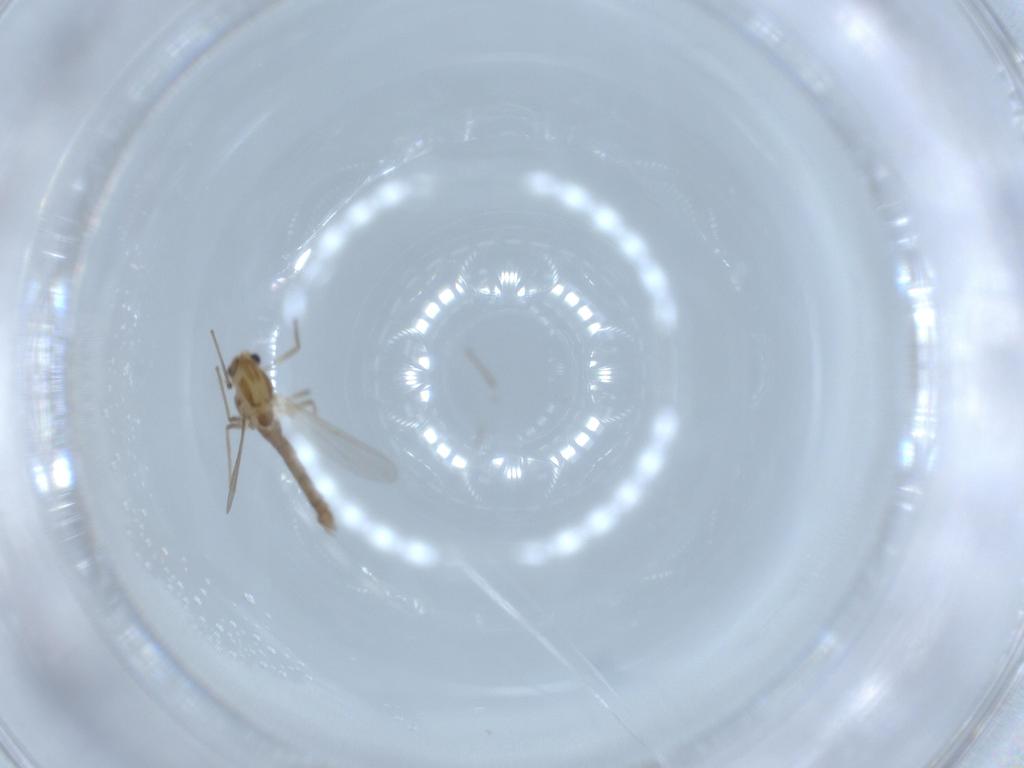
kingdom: Animalia
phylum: Arthropoda
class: Insecta
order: Diptera
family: Chironomidae
